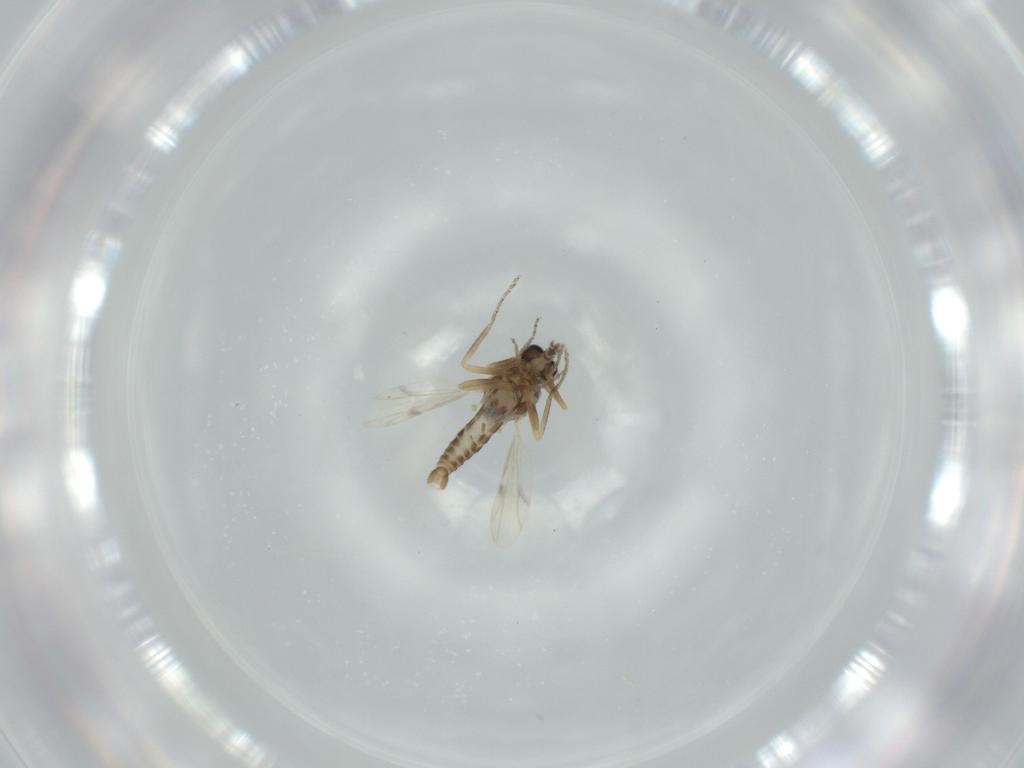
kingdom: Animalia
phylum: Arthropoda
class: Insecta
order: Diptera
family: Ceratopogonidae
